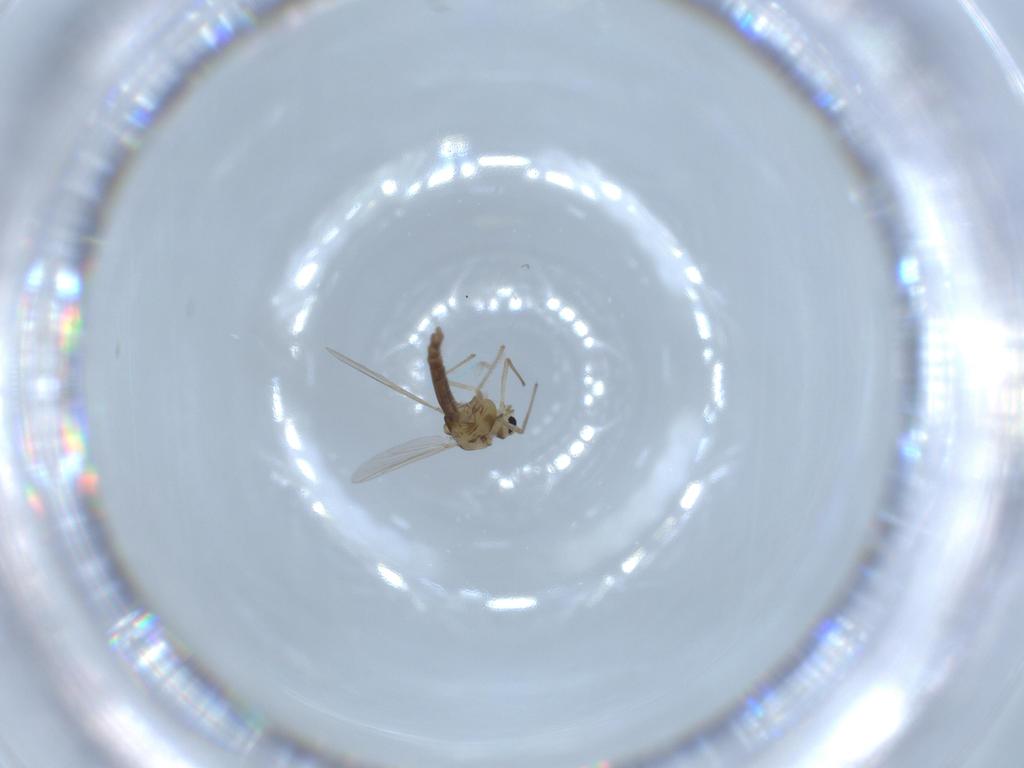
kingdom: Animalia
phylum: Arthropoda
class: Insecta
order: Diptera
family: Chironomidae
